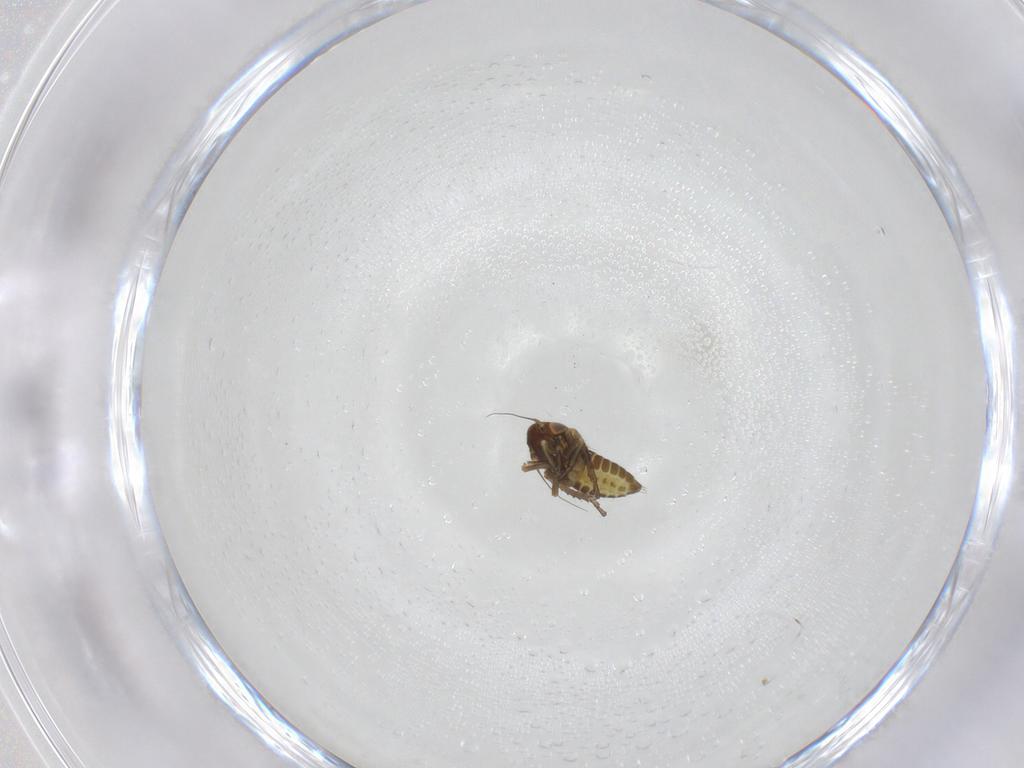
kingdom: Animalia
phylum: Arthropoda
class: Insecta
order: Hemiptera
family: Cicadellidae
